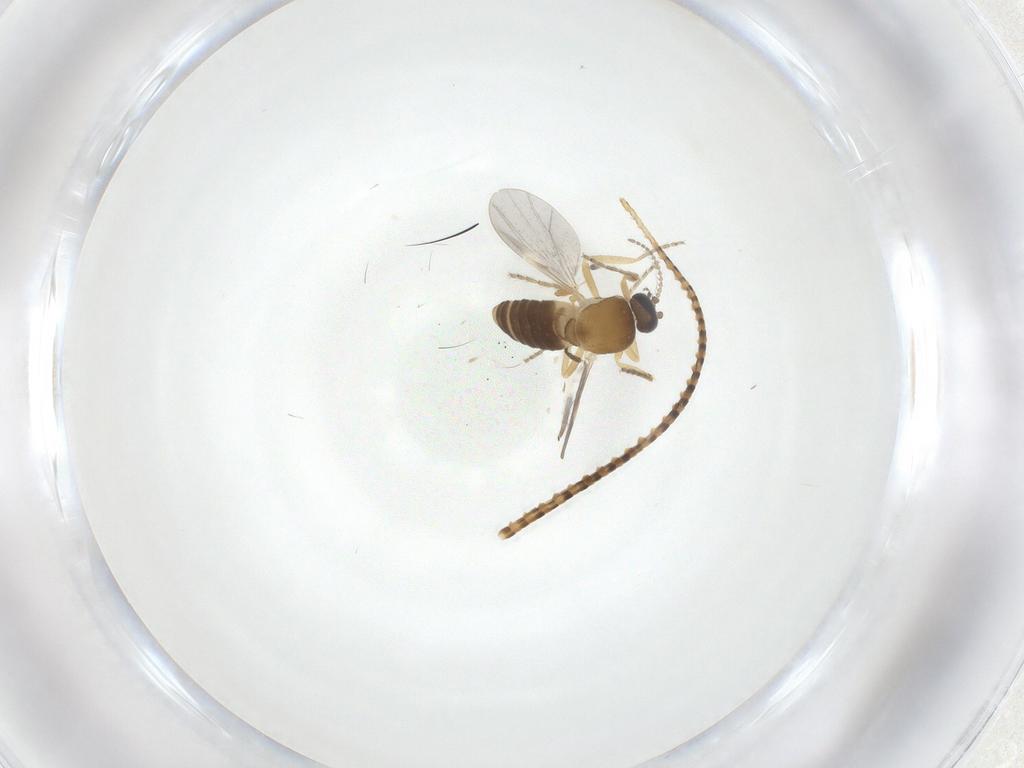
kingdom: Animalia
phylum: Arthropoda
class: Insecta
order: Diptera
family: Ceratopogonidae
